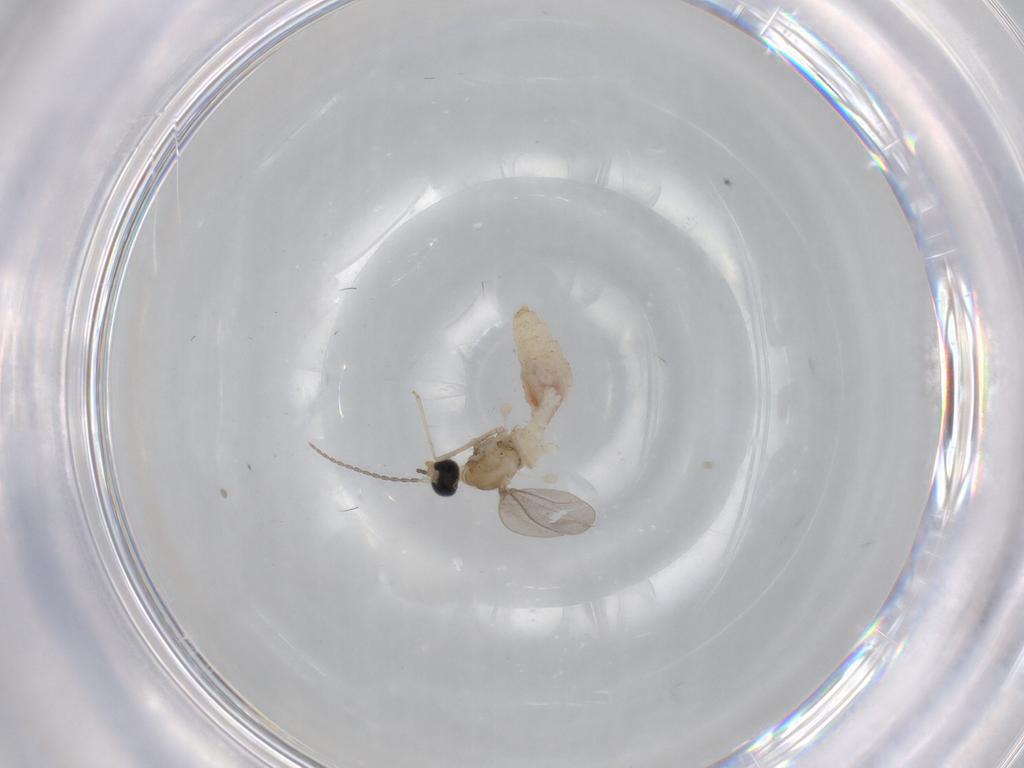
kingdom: Animalia
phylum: Arthropoda
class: Insecta
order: Diptera
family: Cecidomyiidae
